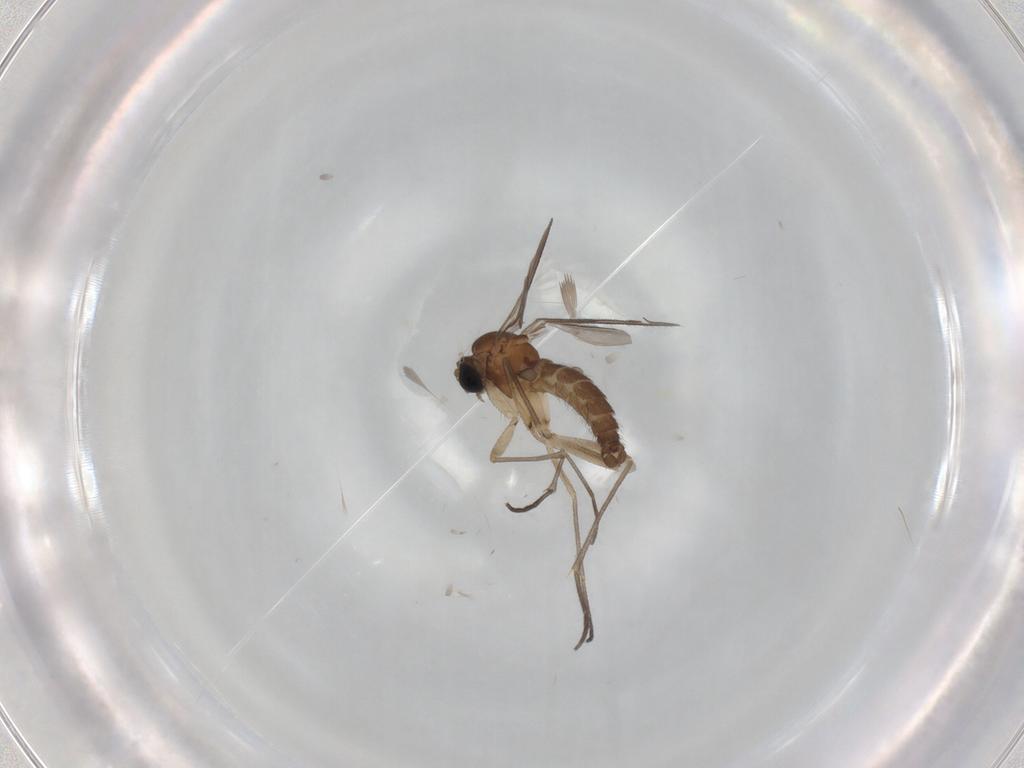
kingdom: Animalia
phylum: Arthropoda
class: Insecta
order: Diptera
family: Sciaridae
